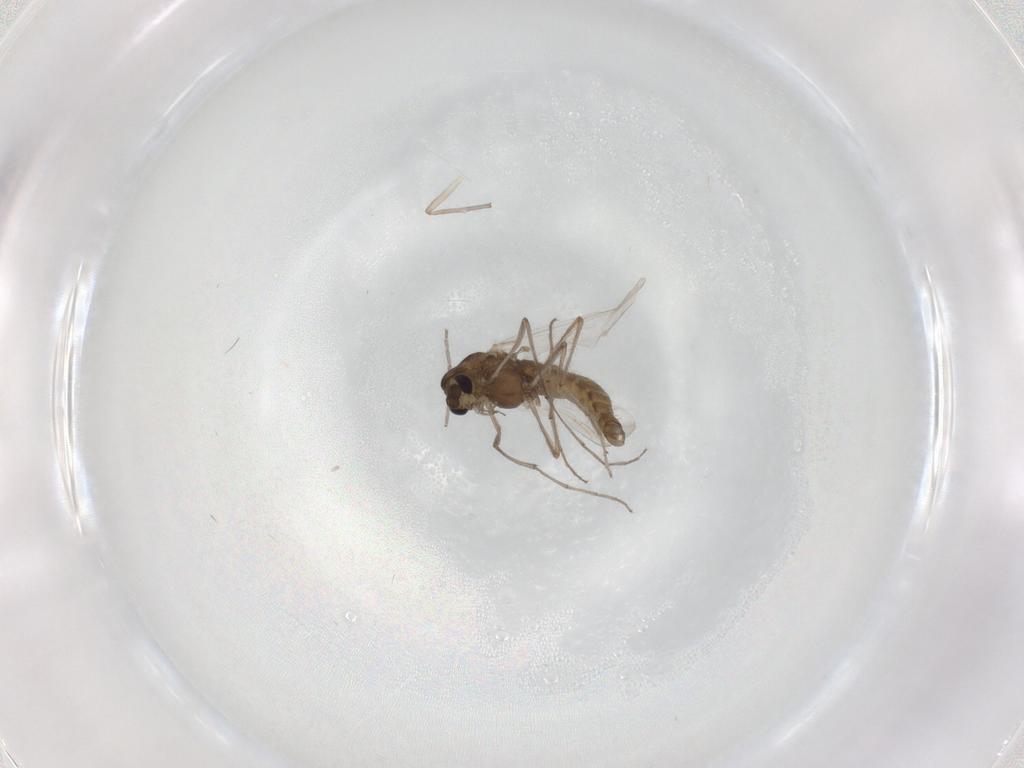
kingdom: Animalia
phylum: Arthropoda
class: Insecta
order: Diptera
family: Chironomidae
